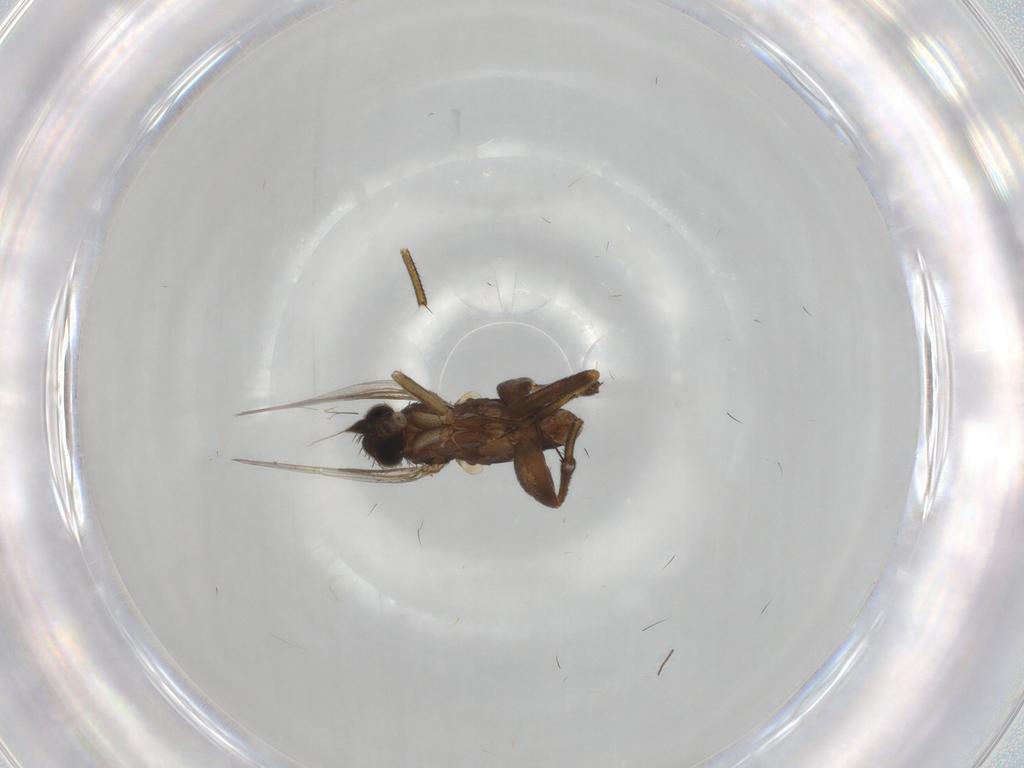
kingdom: Animalia
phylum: Arthropoda
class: Insecta
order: Diptera
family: Phoridae
